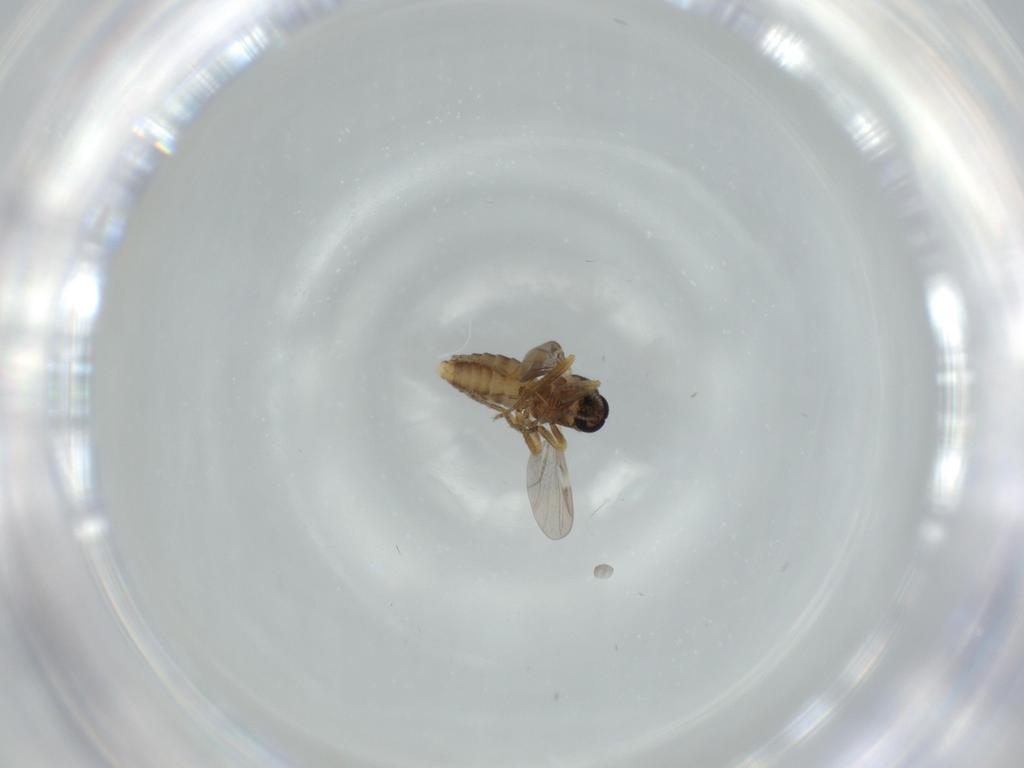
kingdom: Animalia
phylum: Arthropoda
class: Insecta
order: Diptera
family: Ceratopogonidae
